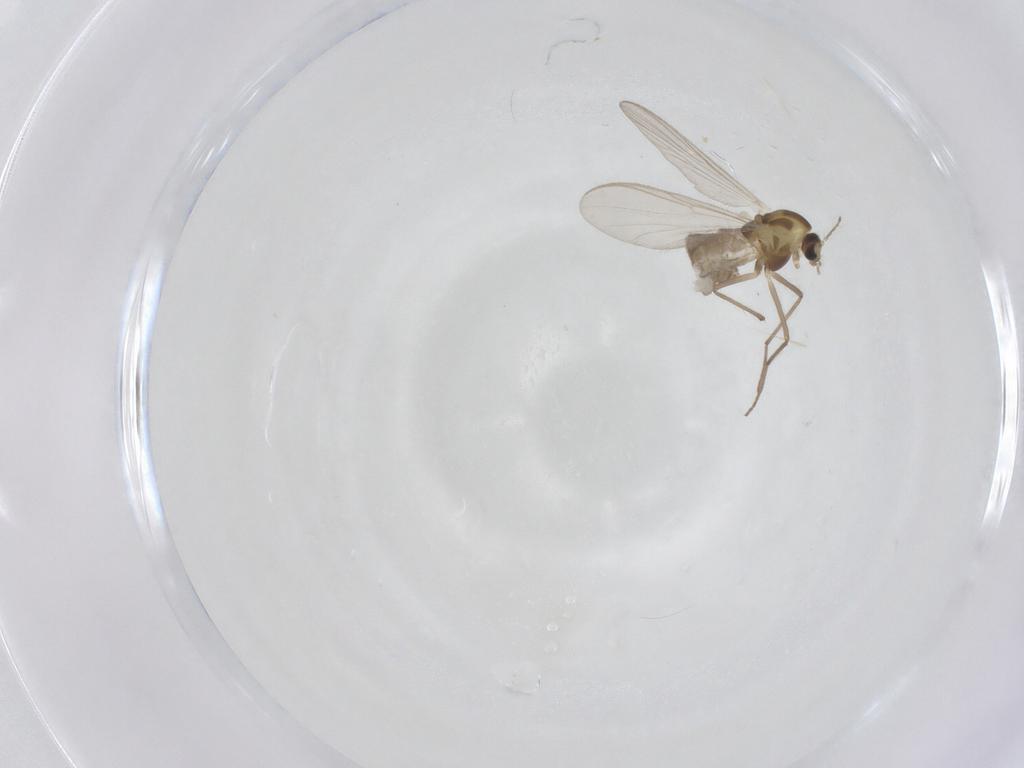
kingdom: Animalia
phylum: Arthropoda
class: Insecta
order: Diptera
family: Chironomidae
